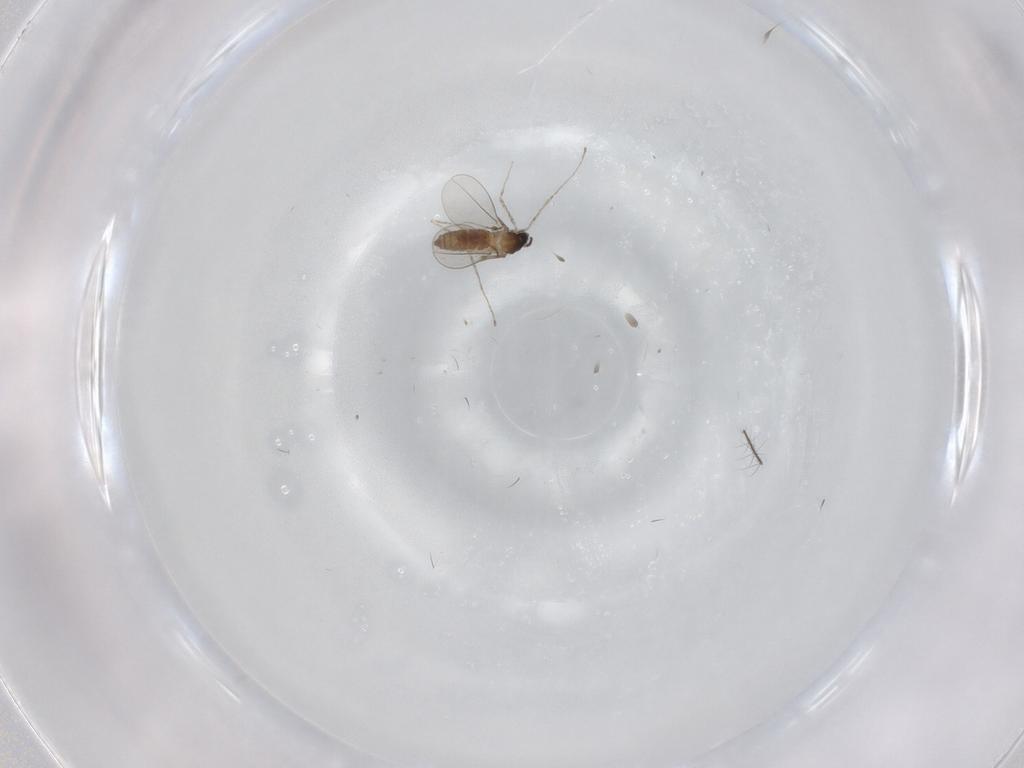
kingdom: Animalia
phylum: Arthropoda
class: Insecta
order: Diptera
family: Cecidomyiidae
